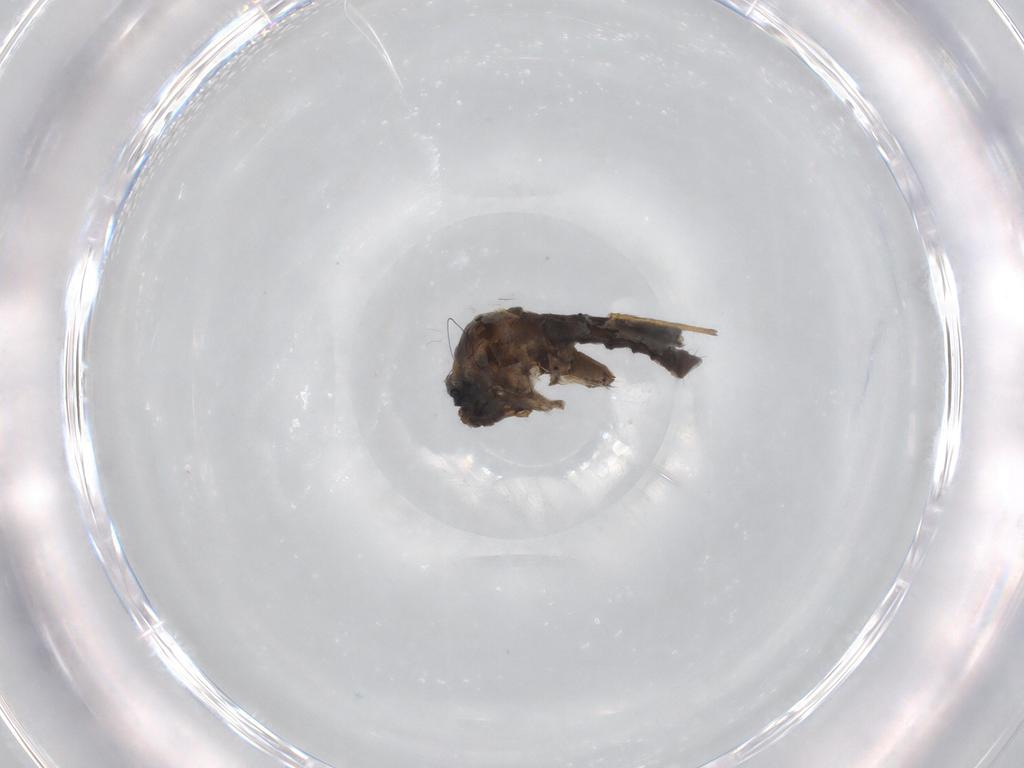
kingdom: Animalia
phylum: Arthropoda
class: Insecta
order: Diptera
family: Sciaridae
